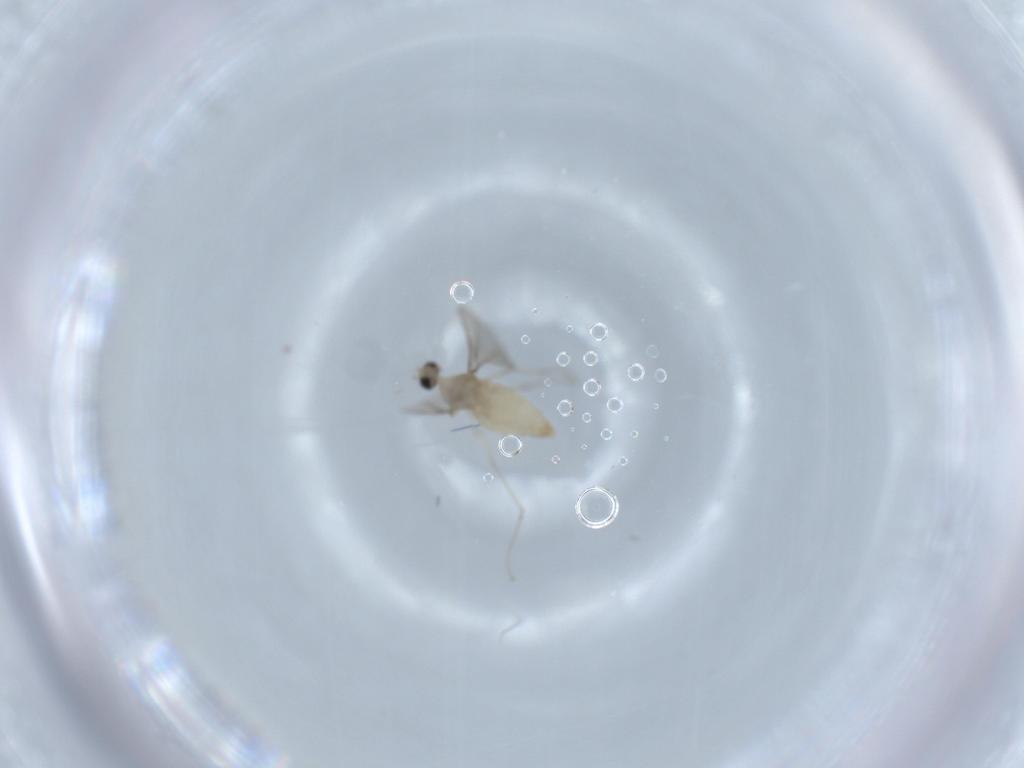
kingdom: Animalia
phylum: Arthropoda
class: Insecta
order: Diptera
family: Cecidomyiidae
